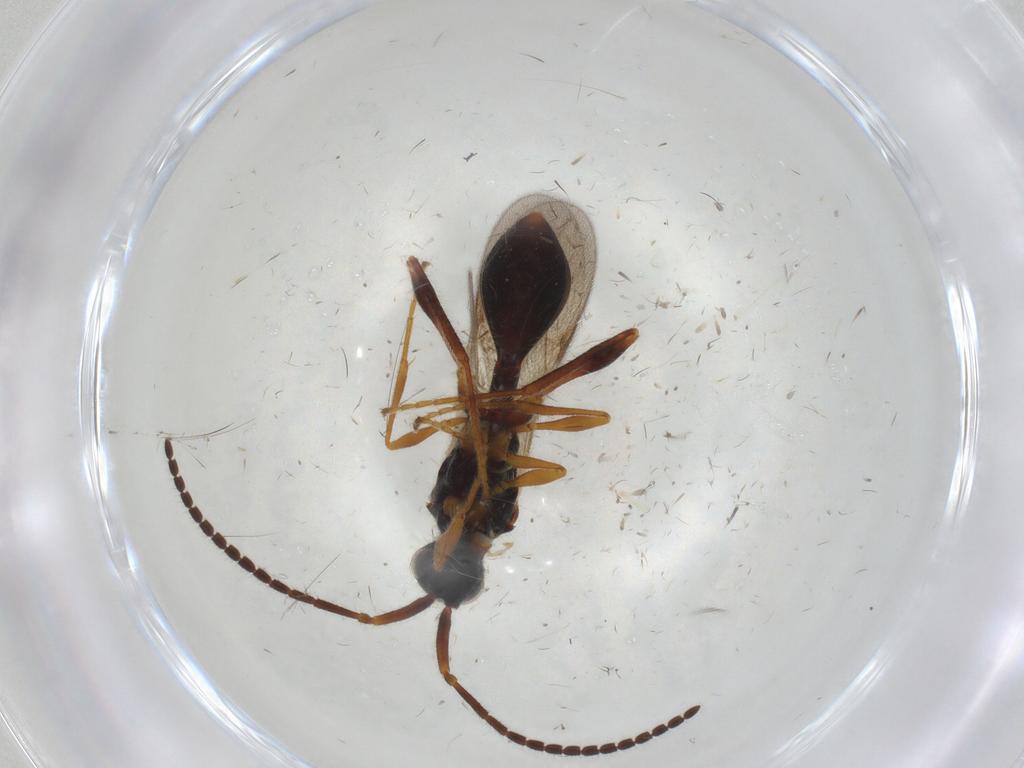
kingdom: Animalia
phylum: Arthropoda
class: Insecta
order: Hymenoptera
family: Diapriidae
